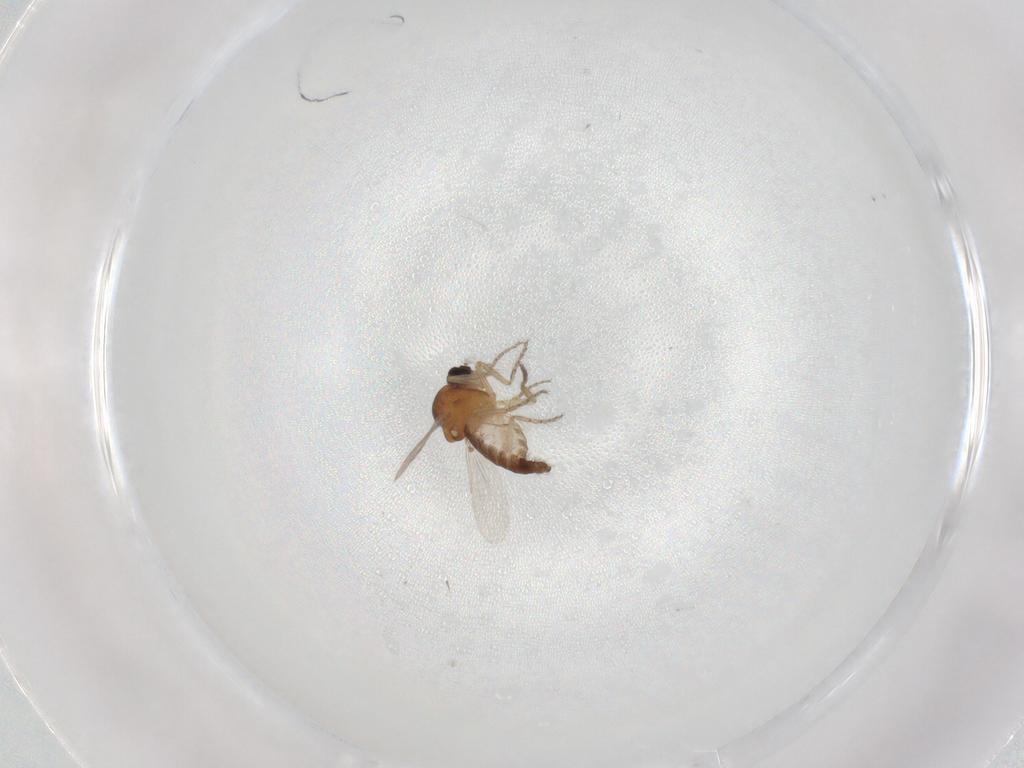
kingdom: Animalia
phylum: Arthropoda
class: Insecta
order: Diptera
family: Ceratopogonidae
